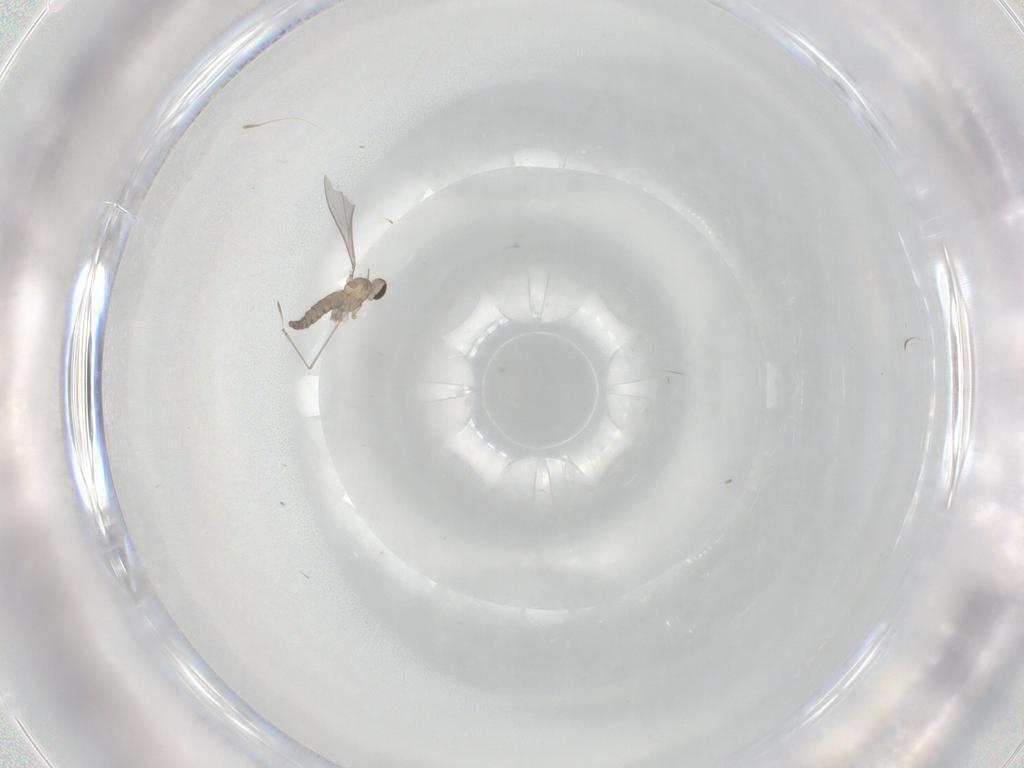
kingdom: Animalia
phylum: Arthropoda
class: Insecta
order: Diptera
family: Cecidomyiidae
